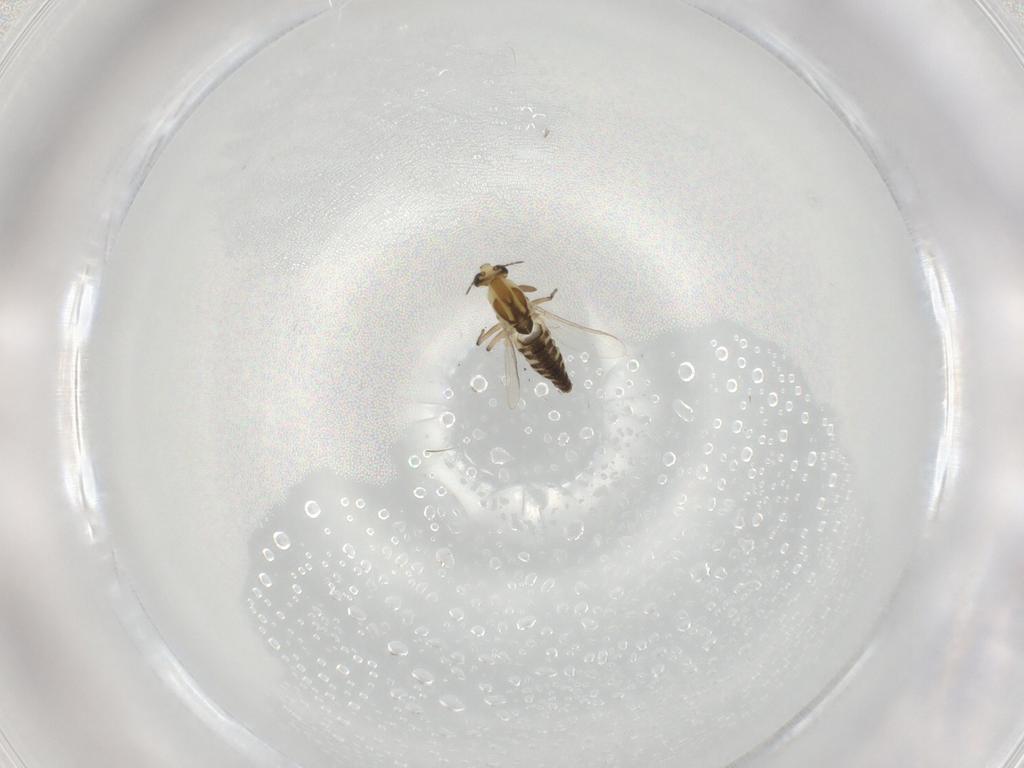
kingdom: Animalia
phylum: Arthropoda
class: Insecta
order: Diptera
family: Chironomidae
